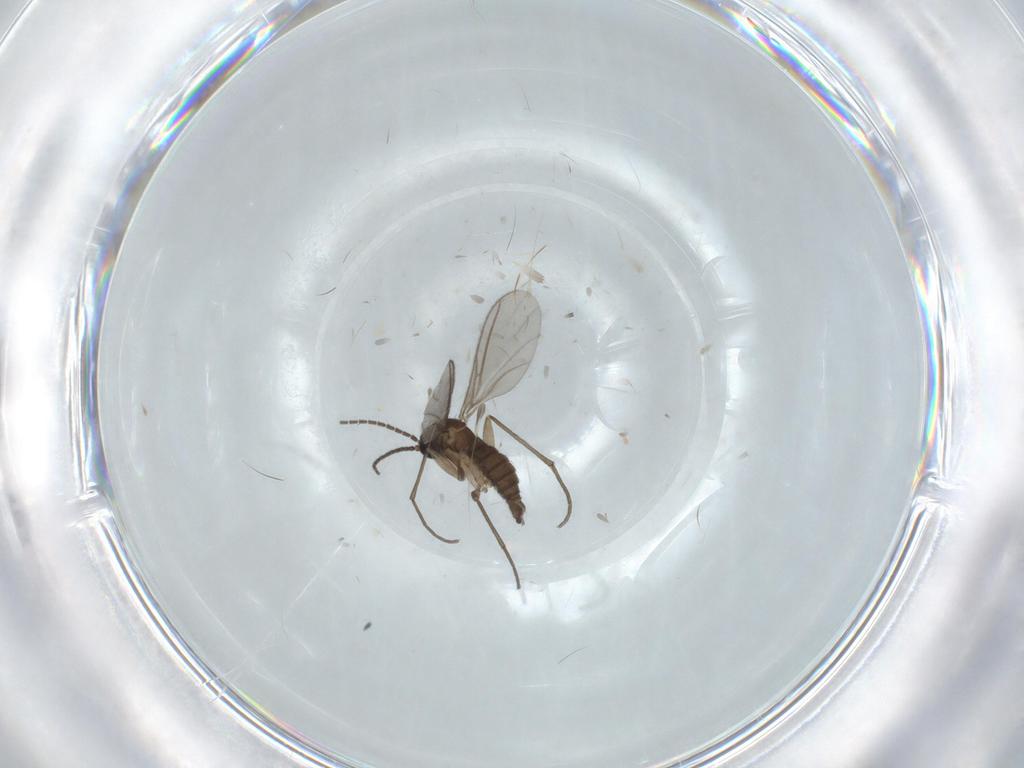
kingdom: Animalia
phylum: Arthropoda
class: Insecta
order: Diptera
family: Sciaridae
